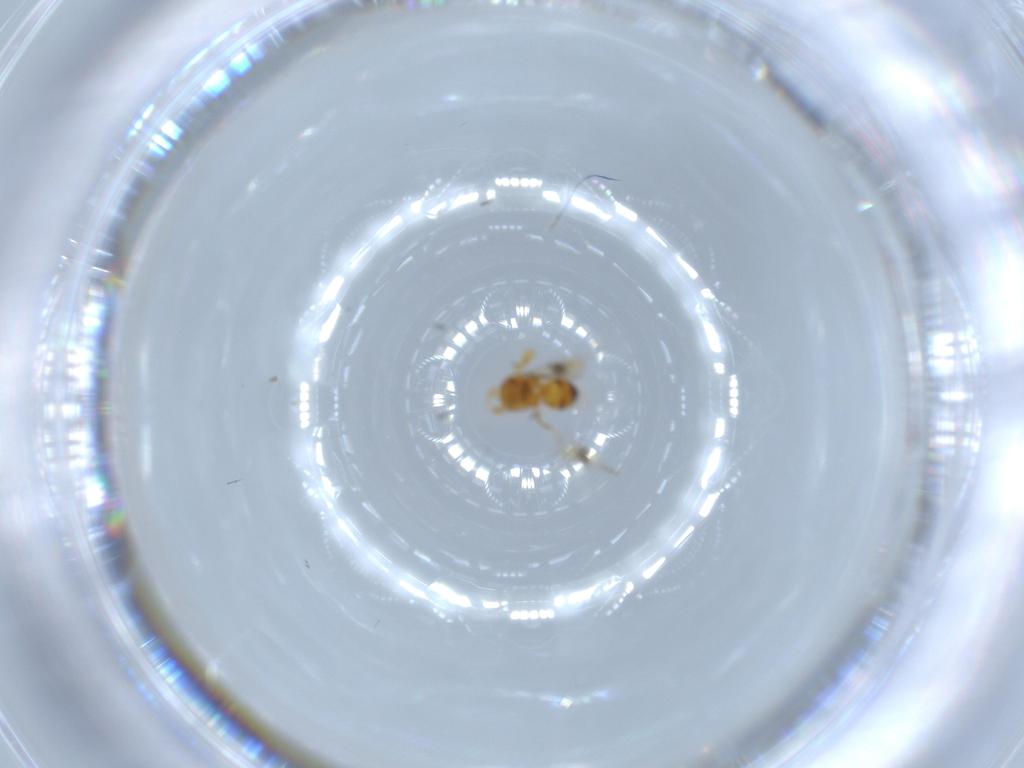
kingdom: Animalia
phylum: Arthropoda
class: Insecta
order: Hymenoptera
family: Scelionidae
